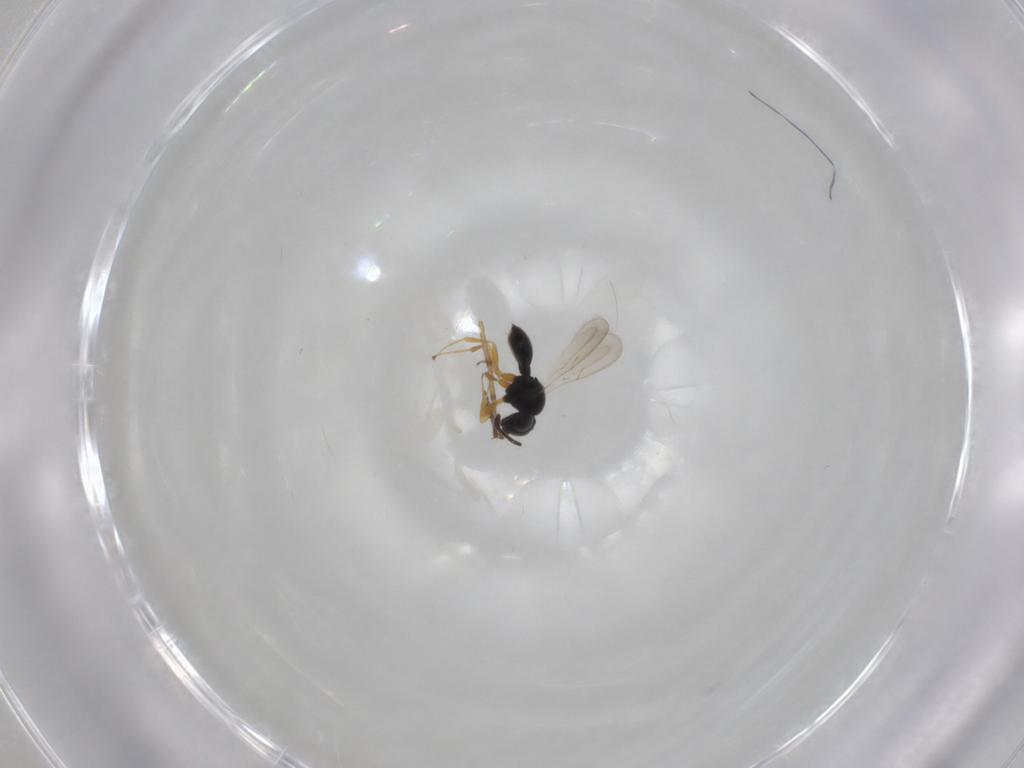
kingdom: Animalia
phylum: Arthropoda
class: Insecta
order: Hymenoptera
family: Scelionidae
